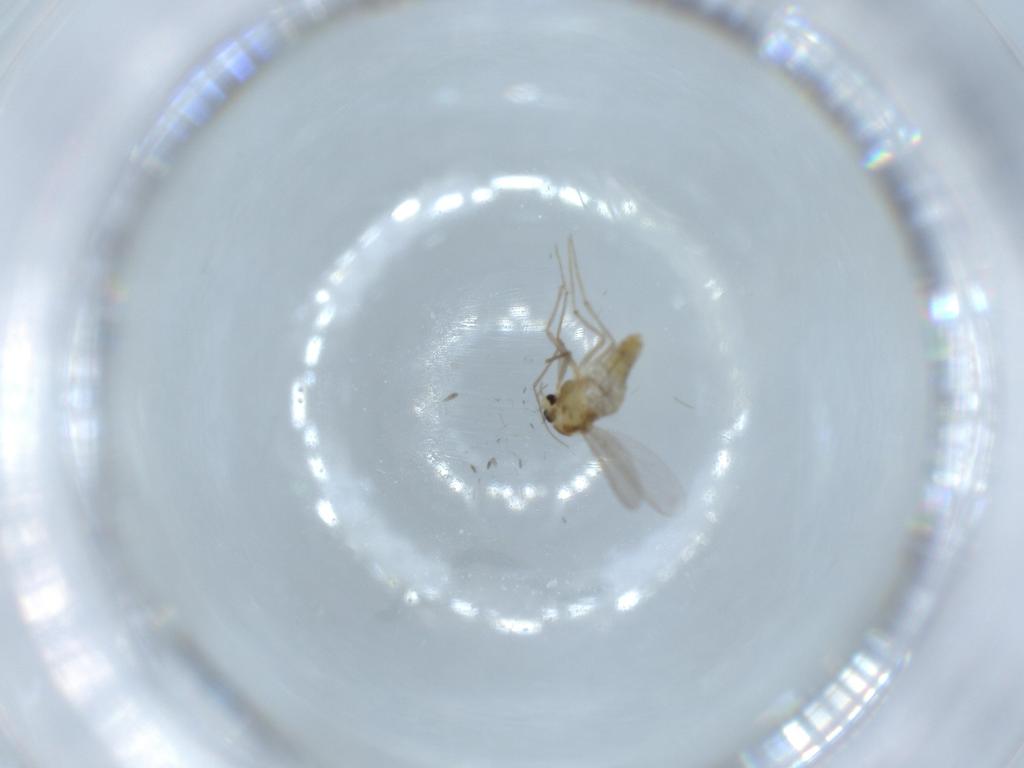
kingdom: Animalia
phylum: Arthropoda
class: Insecta
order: Diptera
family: Chironomidae
